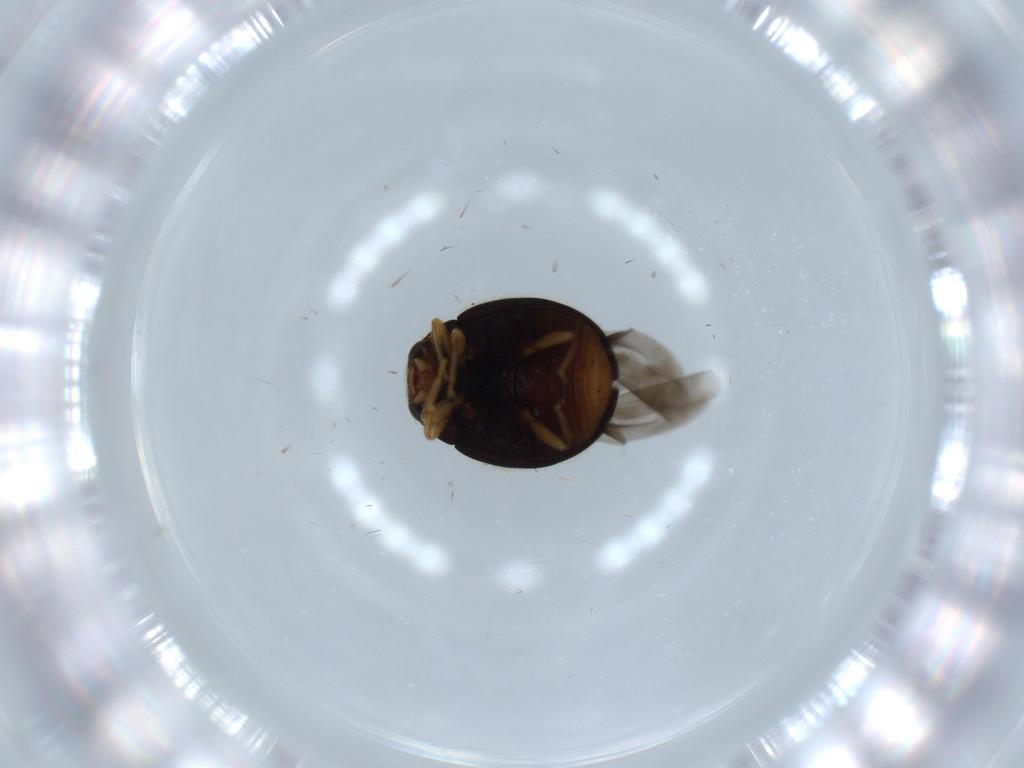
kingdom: Animalia
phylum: Arthropoda
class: Insecta
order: Coleoptera
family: Coccinellidae
